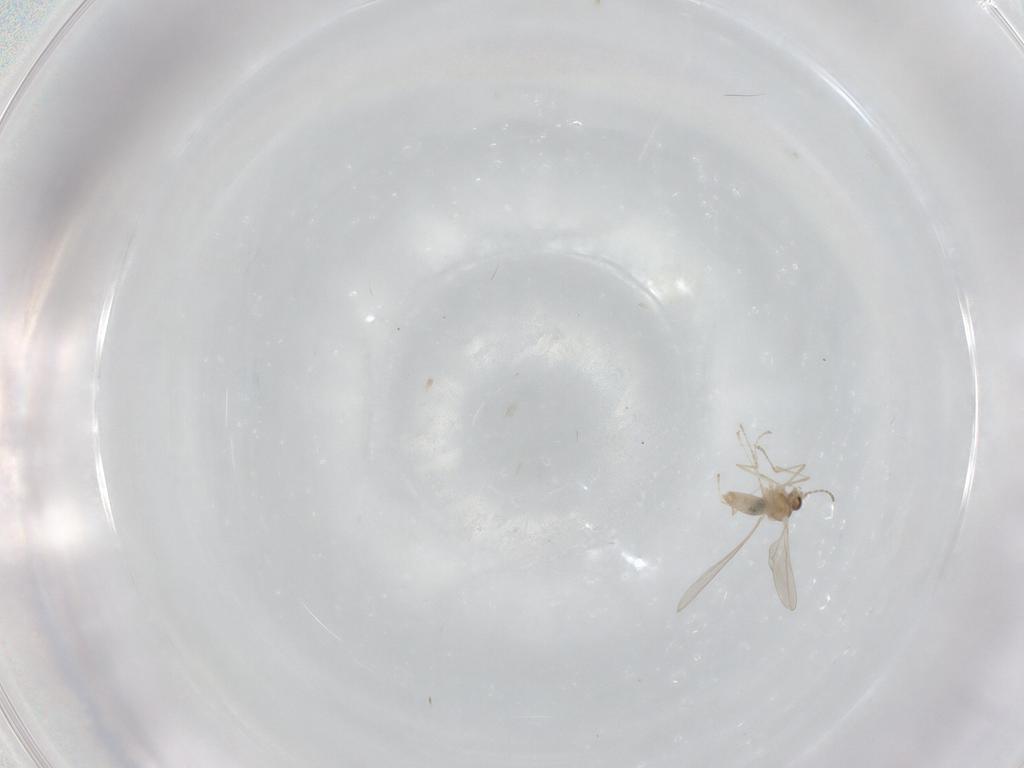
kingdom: Animalia
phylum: Arthropoda
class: Insecta
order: Diptera
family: Cecidomyiidae
